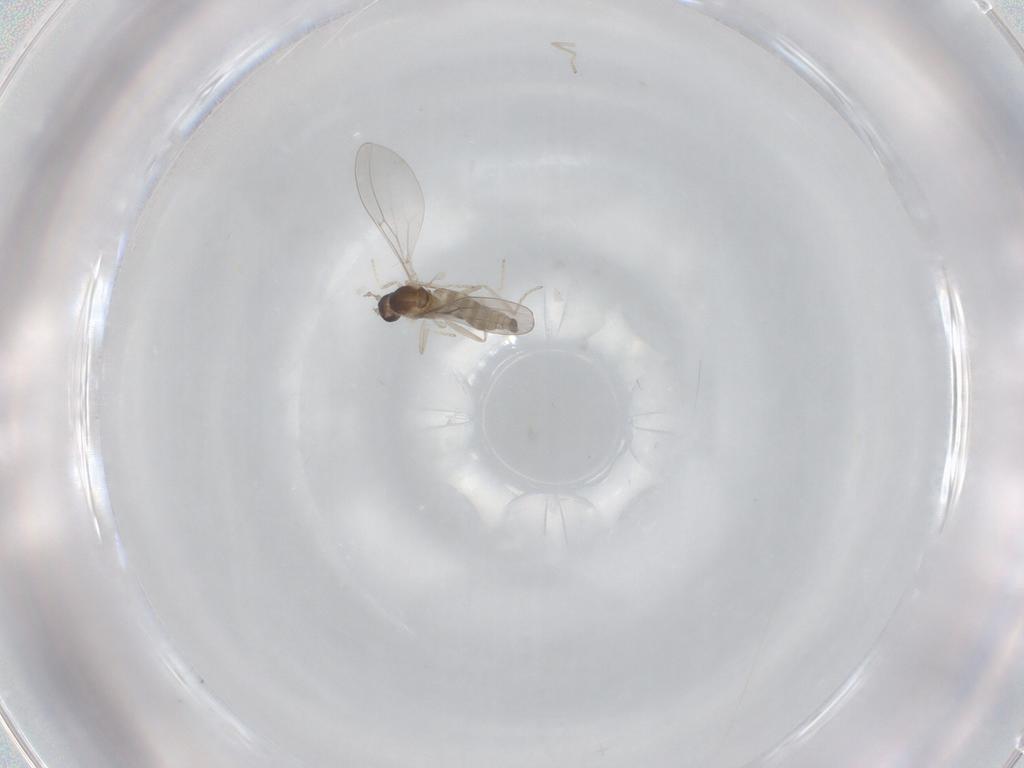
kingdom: Animalia
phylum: Arthropoda
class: Insecta
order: Diptera
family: Cecidomyiidae
